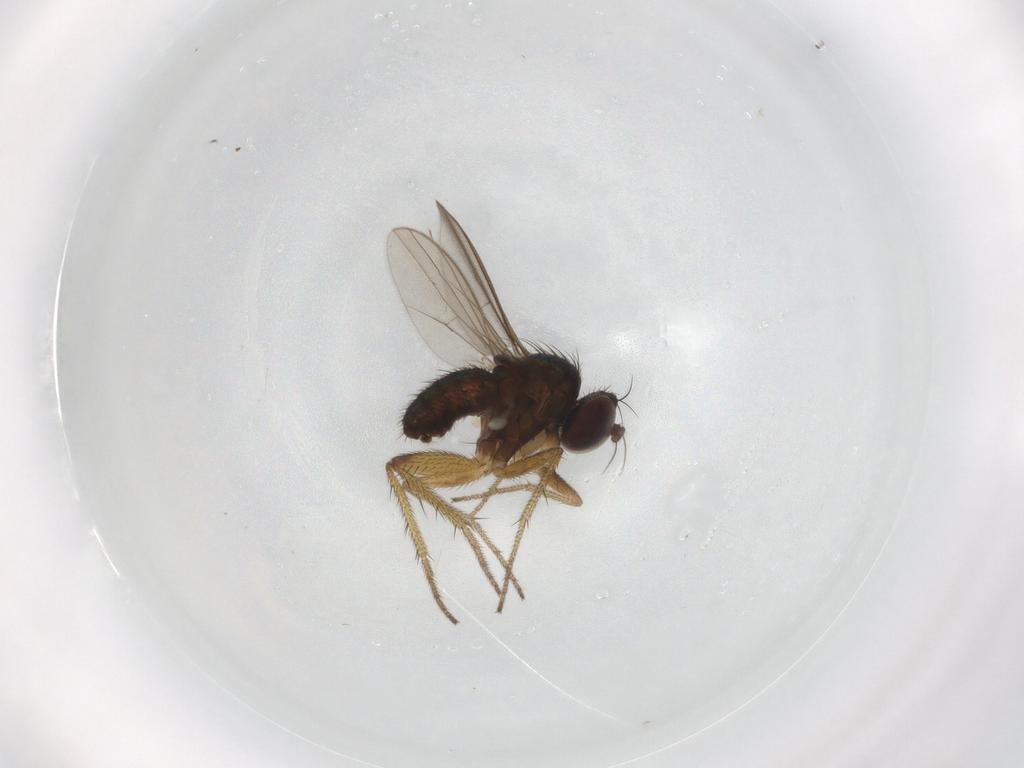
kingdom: Animalia
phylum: Arthropoda
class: Insecta
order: Diptera
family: Dolichopodidae
